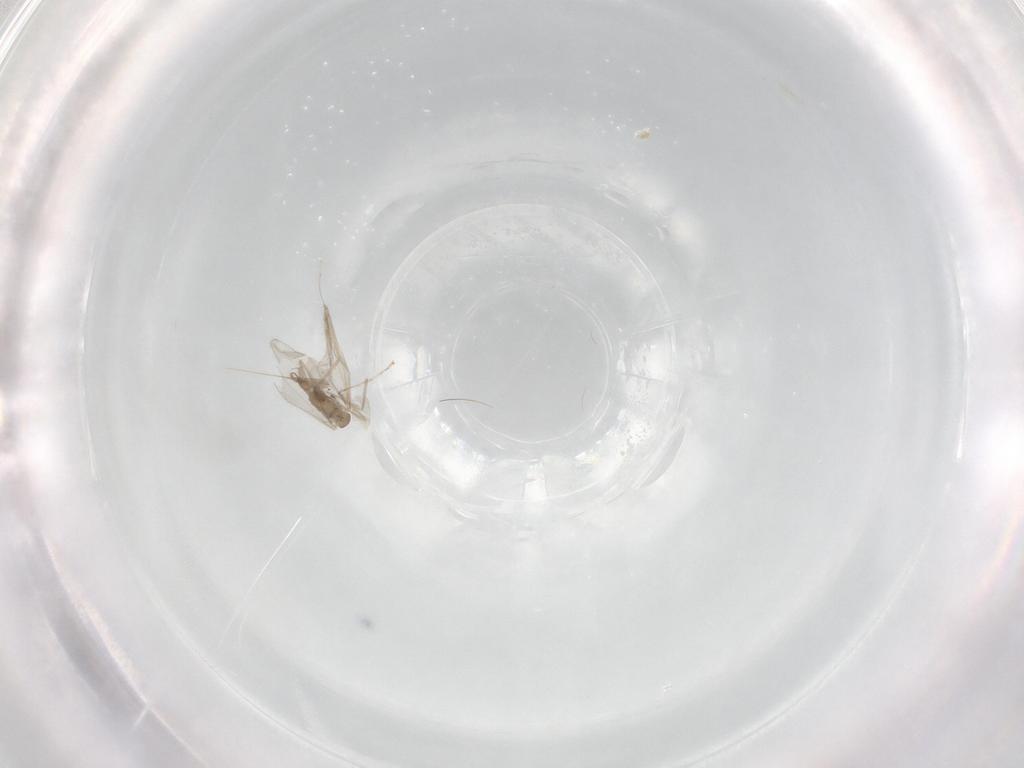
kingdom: Animalia
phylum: Arthropoda
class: Insecta
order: Diptera
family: Cecidomyiidae
